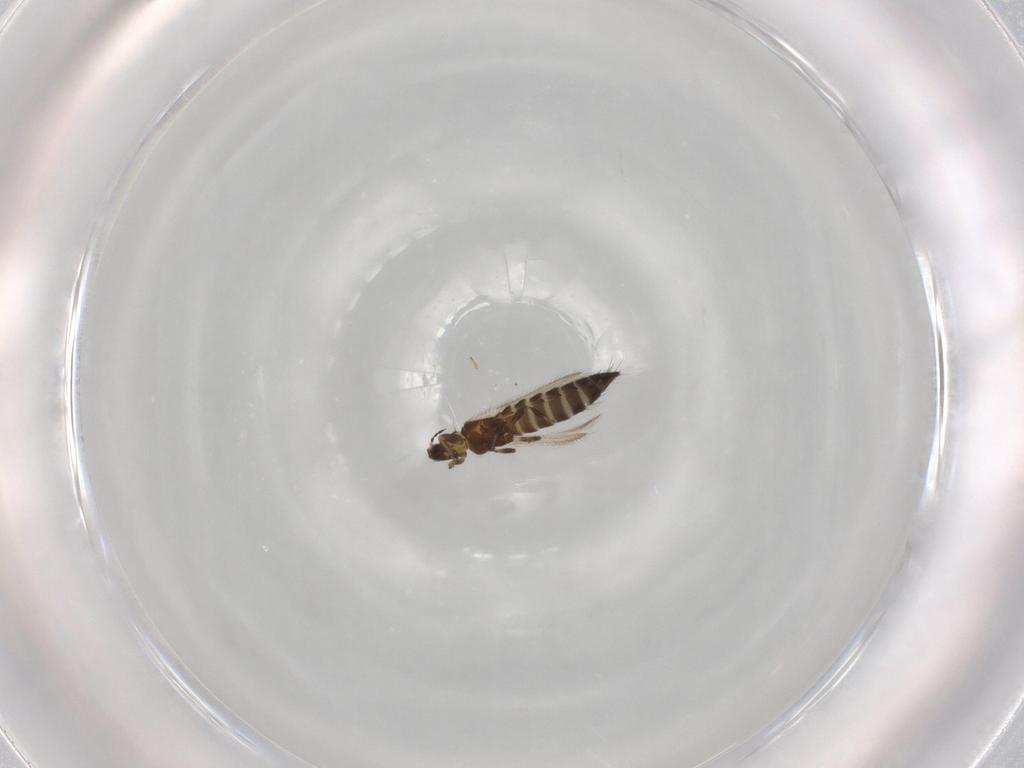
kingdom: Animalia
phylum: Arthropoda
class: Insecta
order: Thysanoptera
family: Thripidae
